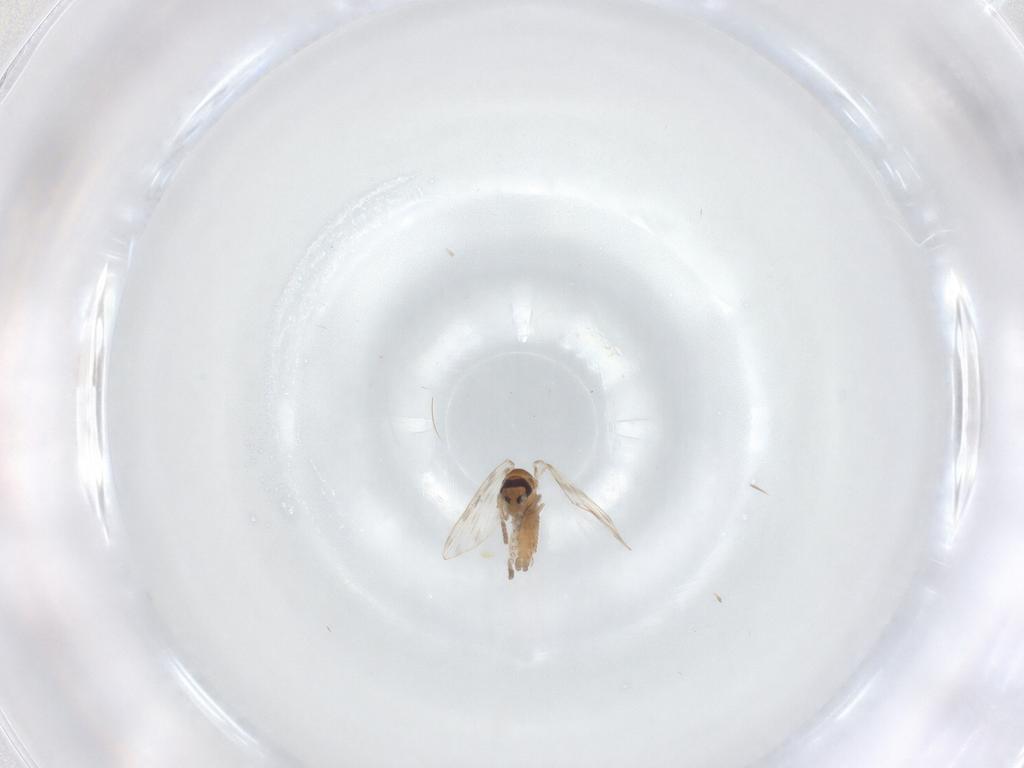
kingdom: Animalia
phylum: Arthropoda
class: Insecta
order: Diptera
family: Psychodidae
